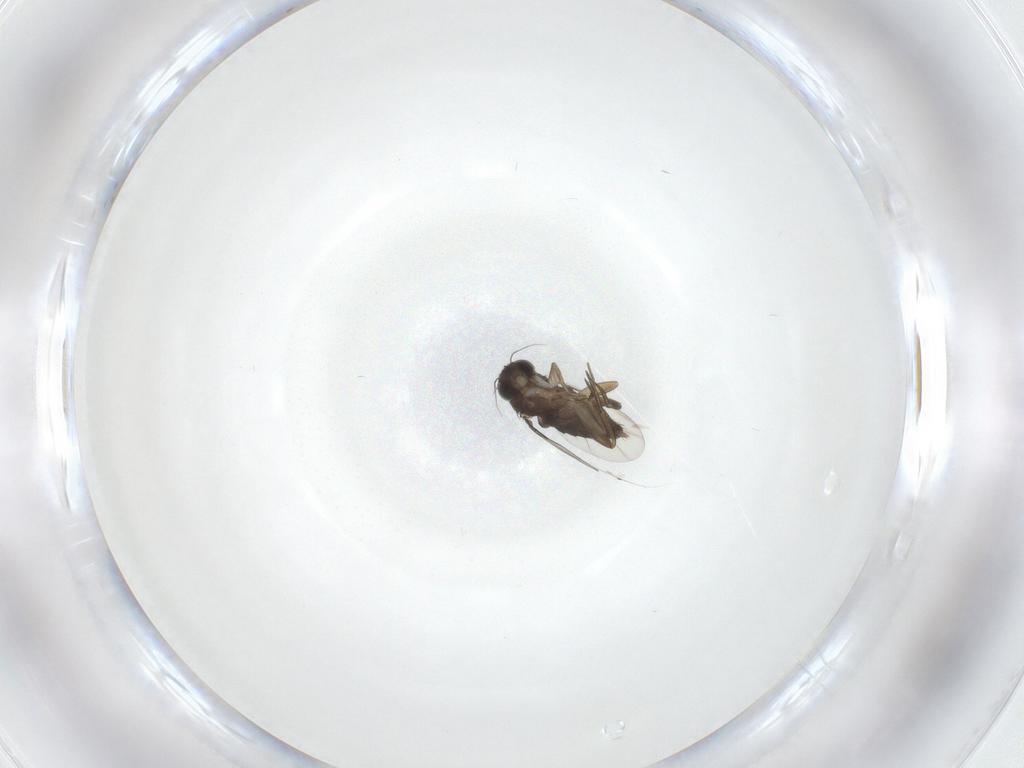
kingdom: Animalia
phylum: Arthropoda
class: Insecta
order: Diptera
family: Phoridae
